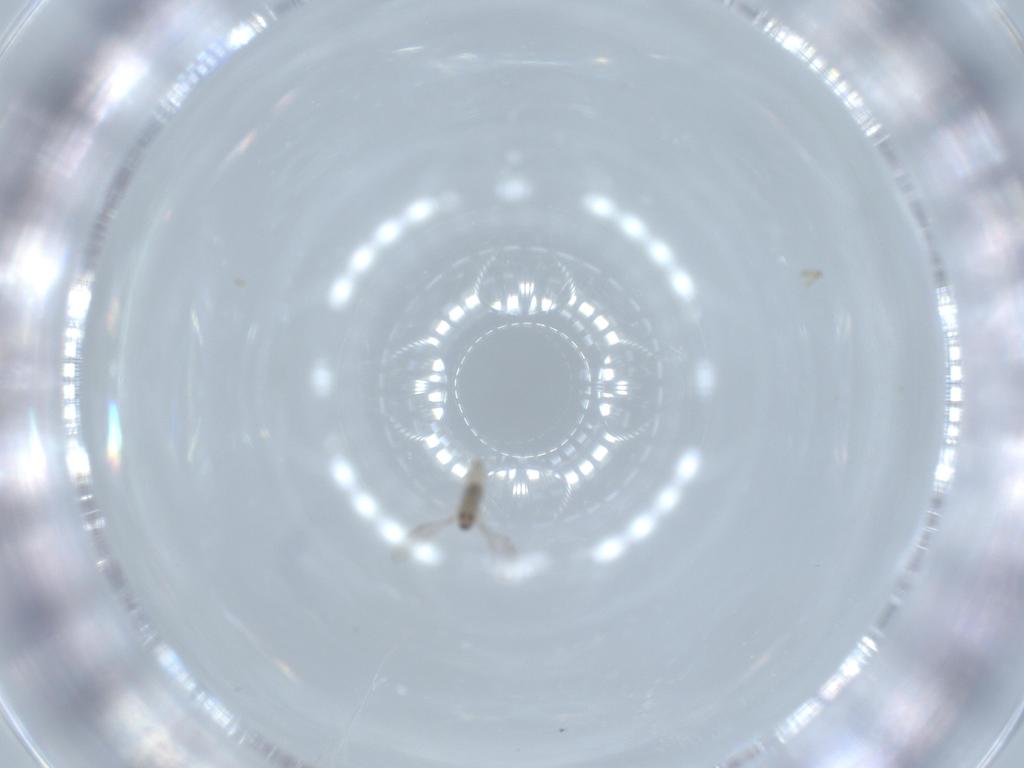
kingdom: Animalia
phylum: Arthropoda
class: Insecta
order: Diptera
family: Cecidomyiidae
